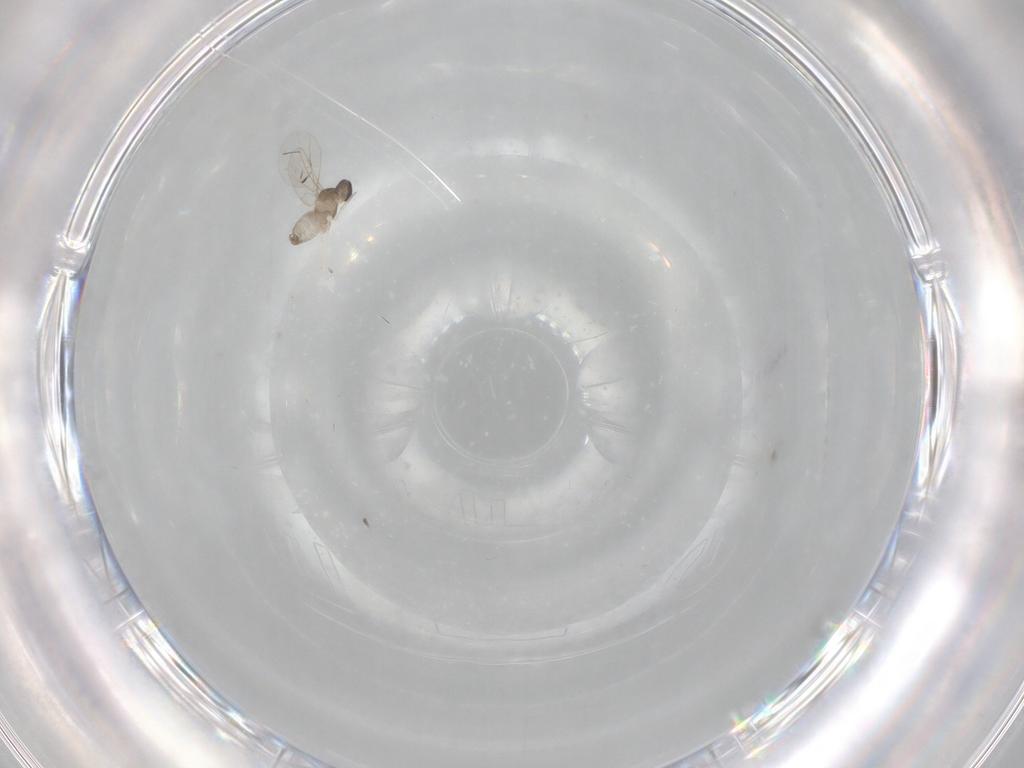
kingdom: Animalia
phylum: Arthropoda
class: Insecta
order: Diptera
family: Cecidomyiidae
